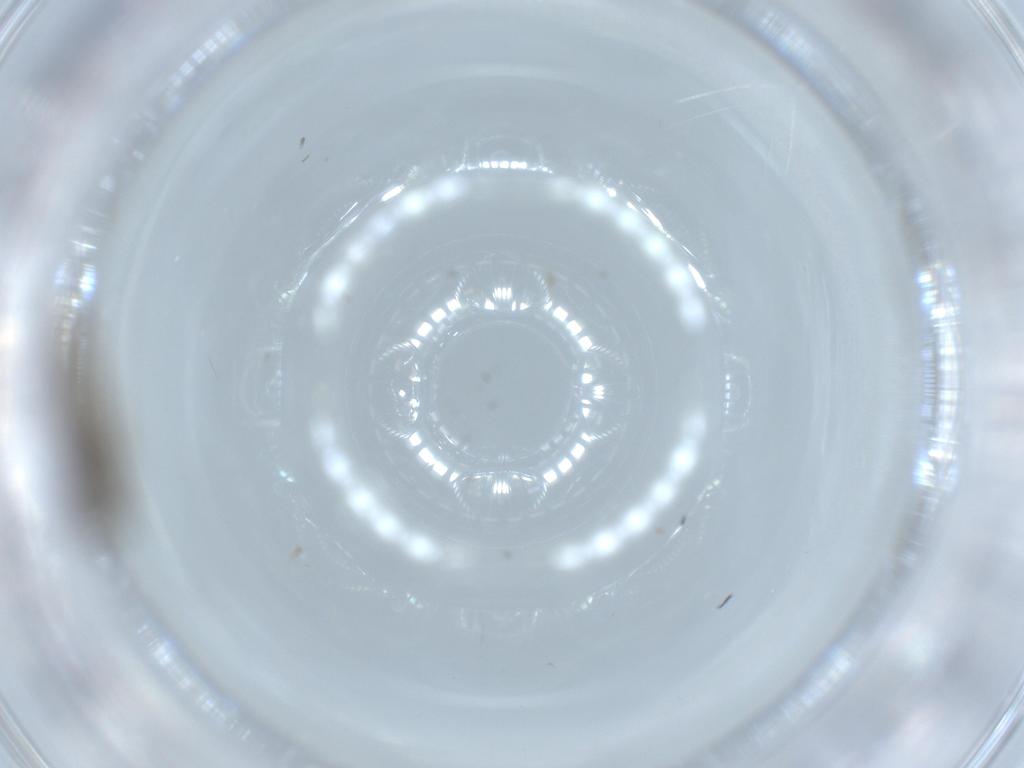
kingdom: Animalia
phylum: Arthropoda
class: Insecta
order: Diptera
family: Chironomidae
